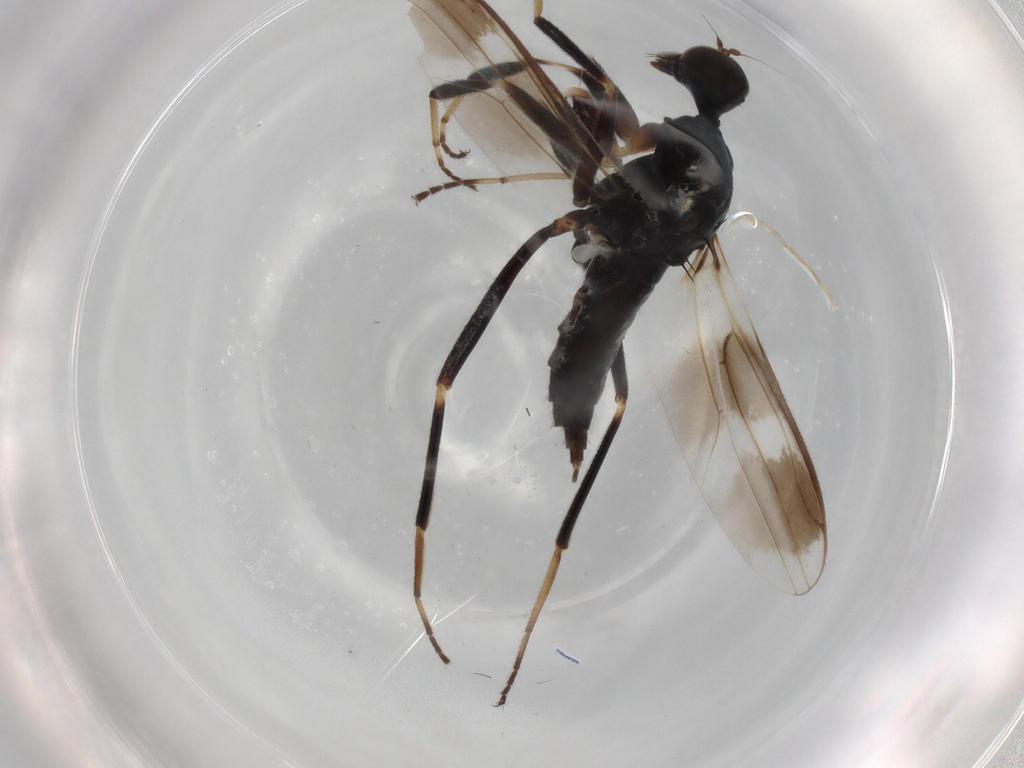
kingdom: Animalia
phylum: Arthropoda
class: Insecta
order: Diptera
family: Hybotidae
